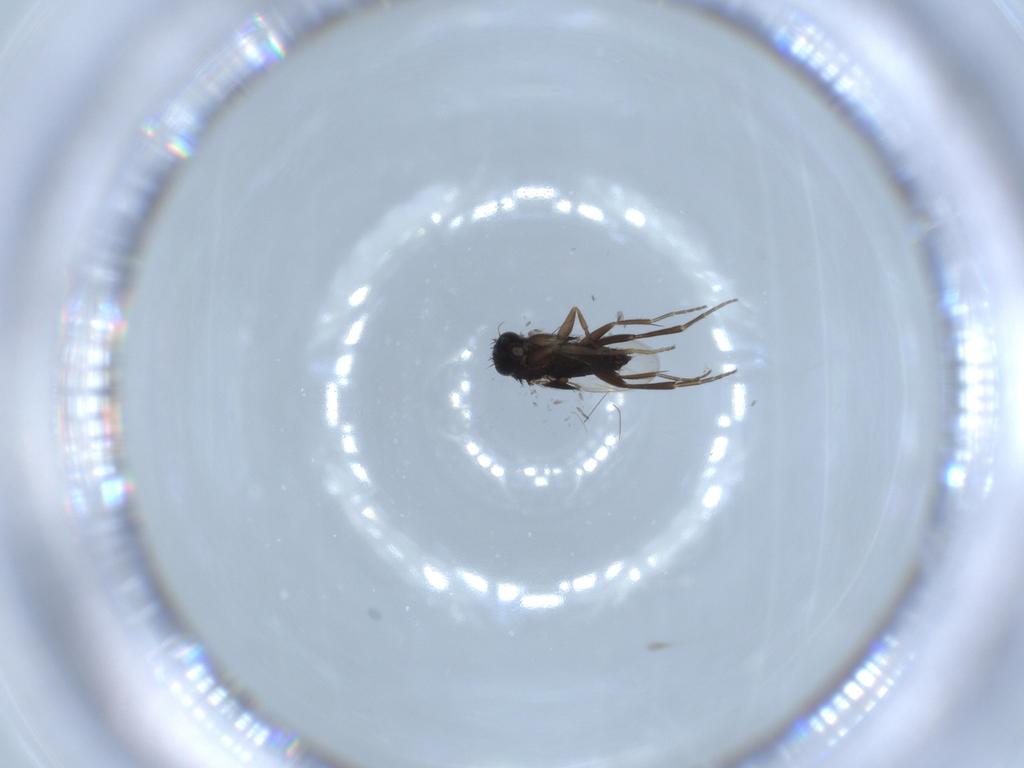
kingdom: Animalia
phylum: Arthropoda
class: Insecta
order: Diptera
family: Phoridae
